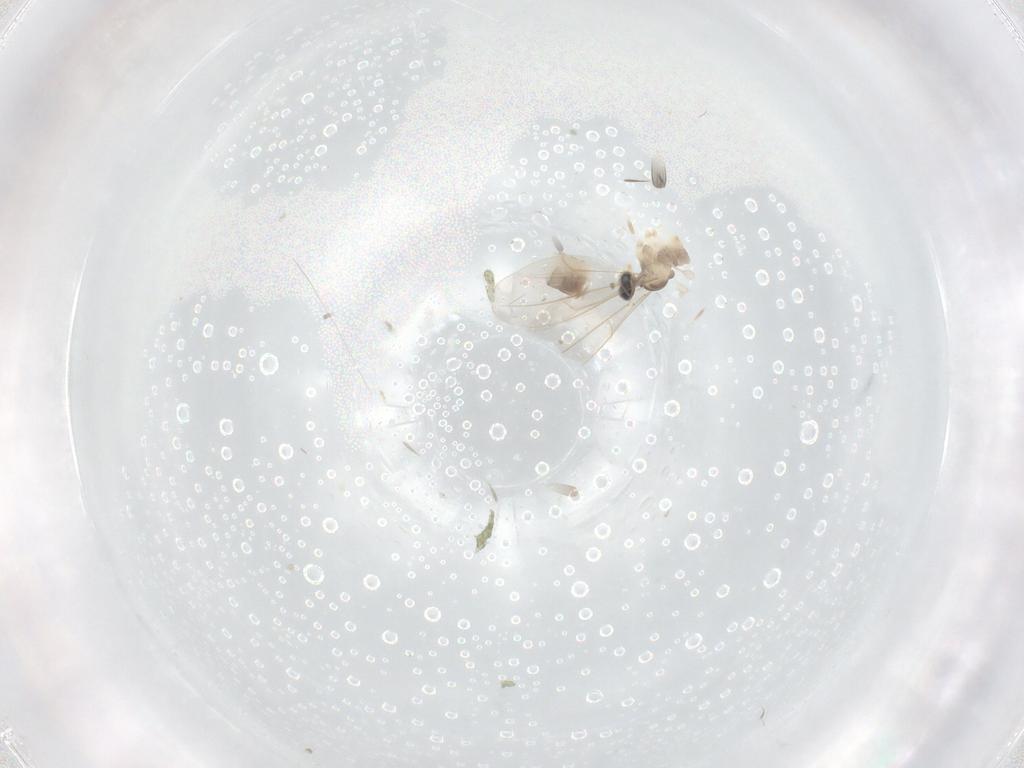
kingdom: Animalia
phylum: Arthropoda
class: Insecta
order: Diptera
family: Cecidomyiidae
